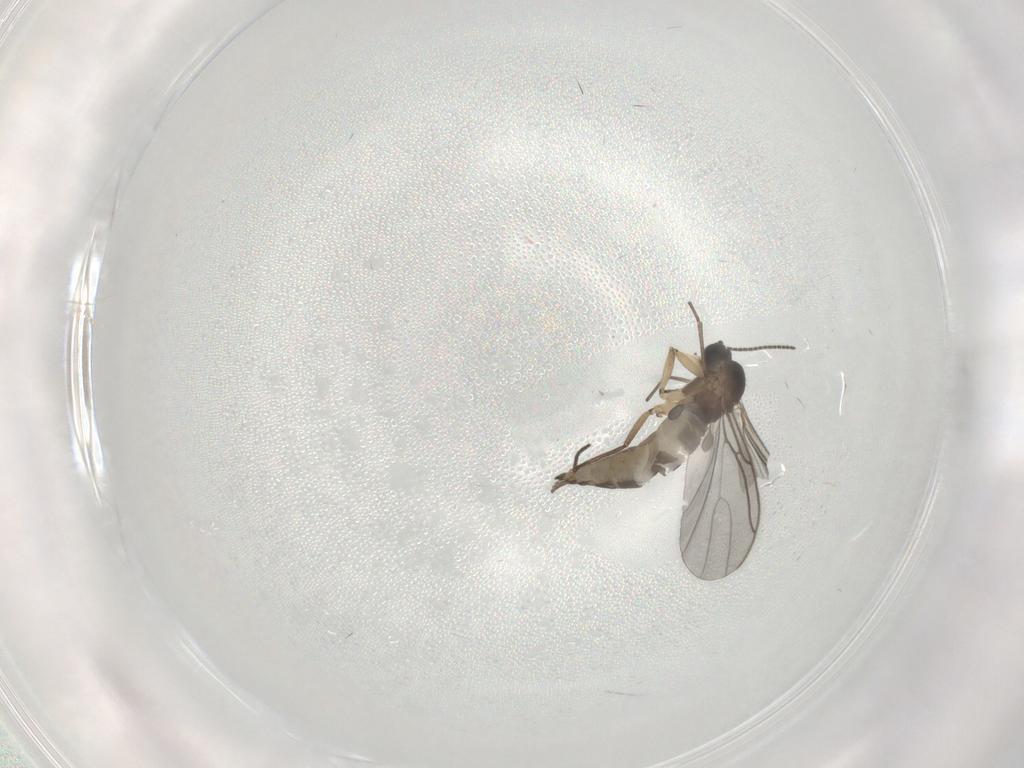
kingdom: Animalia
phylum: Arthropoda
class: Insecta
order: Diptera
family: Sciaridae
